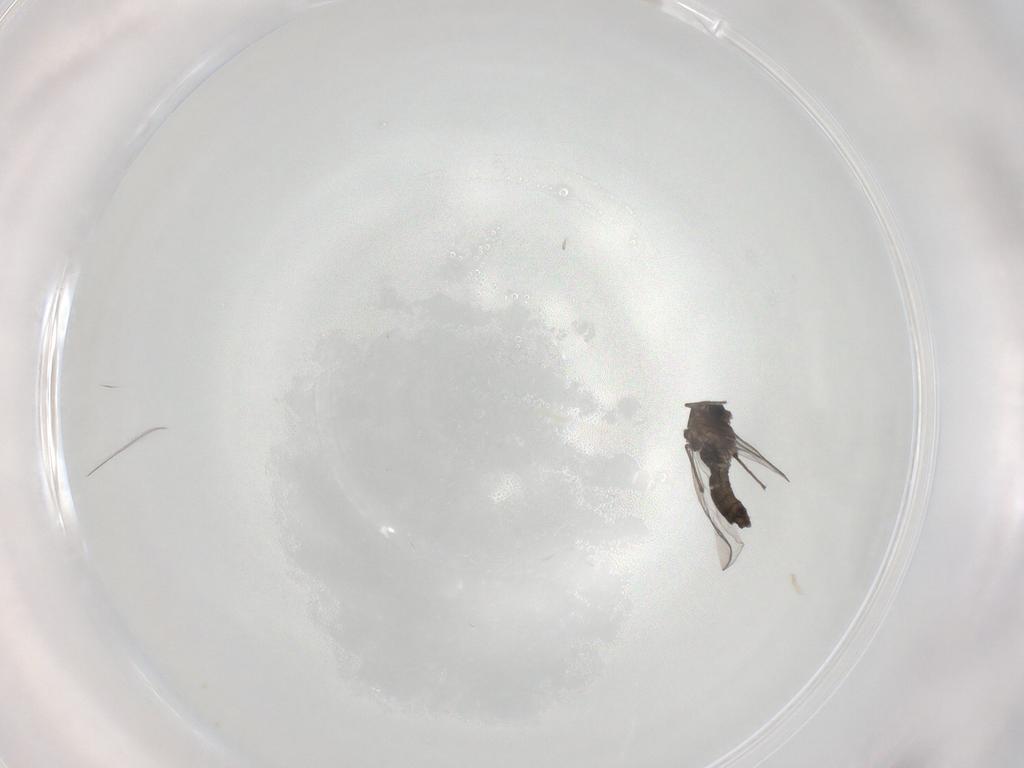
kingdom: Animalia
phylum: Arthropoda
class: Insecta
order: Diptera
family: Chironomidae
